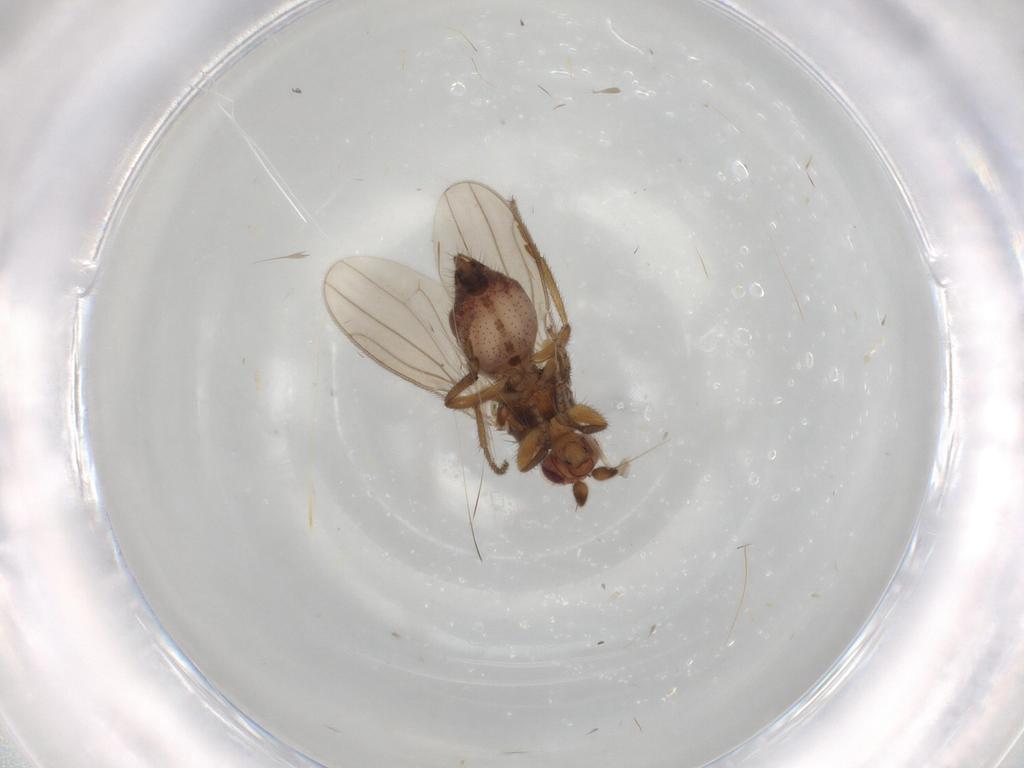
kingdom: Animalia
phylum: Arthropoda
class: Insecta
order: Diptera
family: Sphaeroceridae
